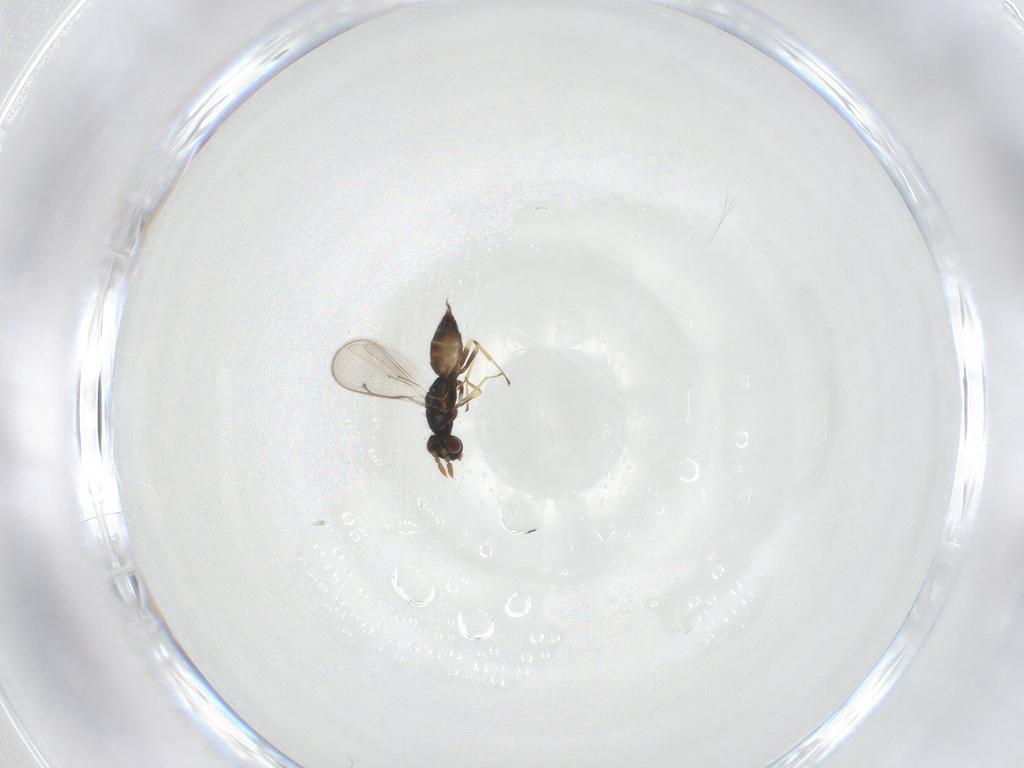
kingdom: Animalia
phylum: Arthropoda
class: Insecta
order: Hymenoptera
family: Eulophidae
